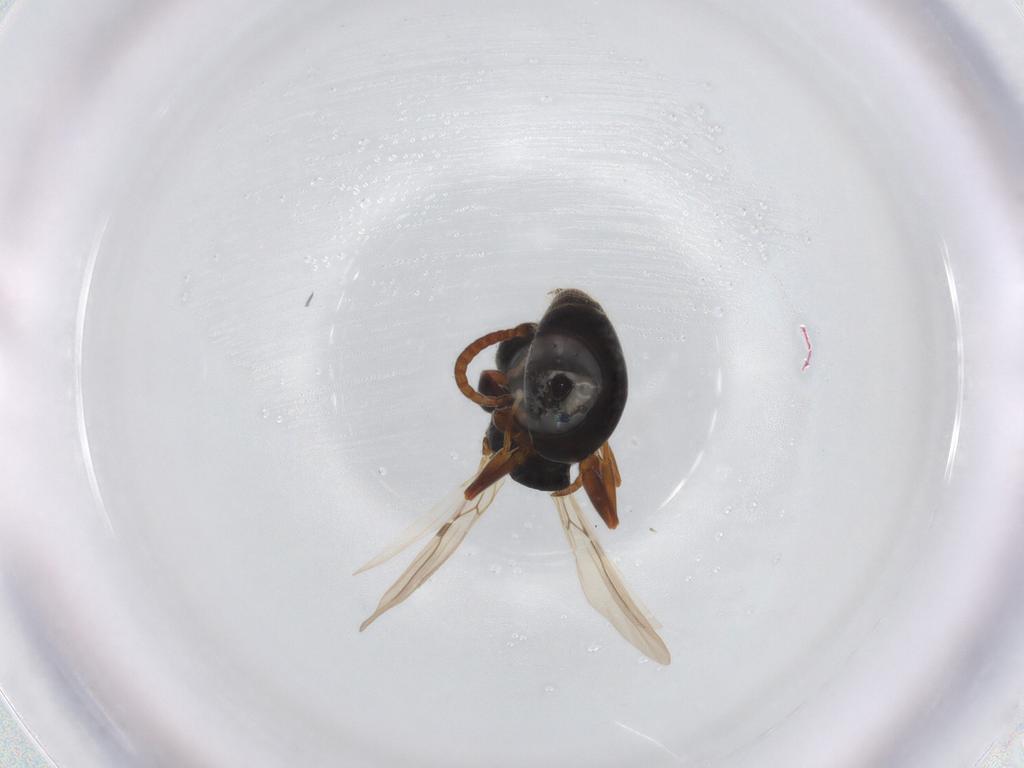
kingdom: Animalia
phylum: Arthropoda
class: Insecta
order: Hymenoptera
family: Bethylidae
